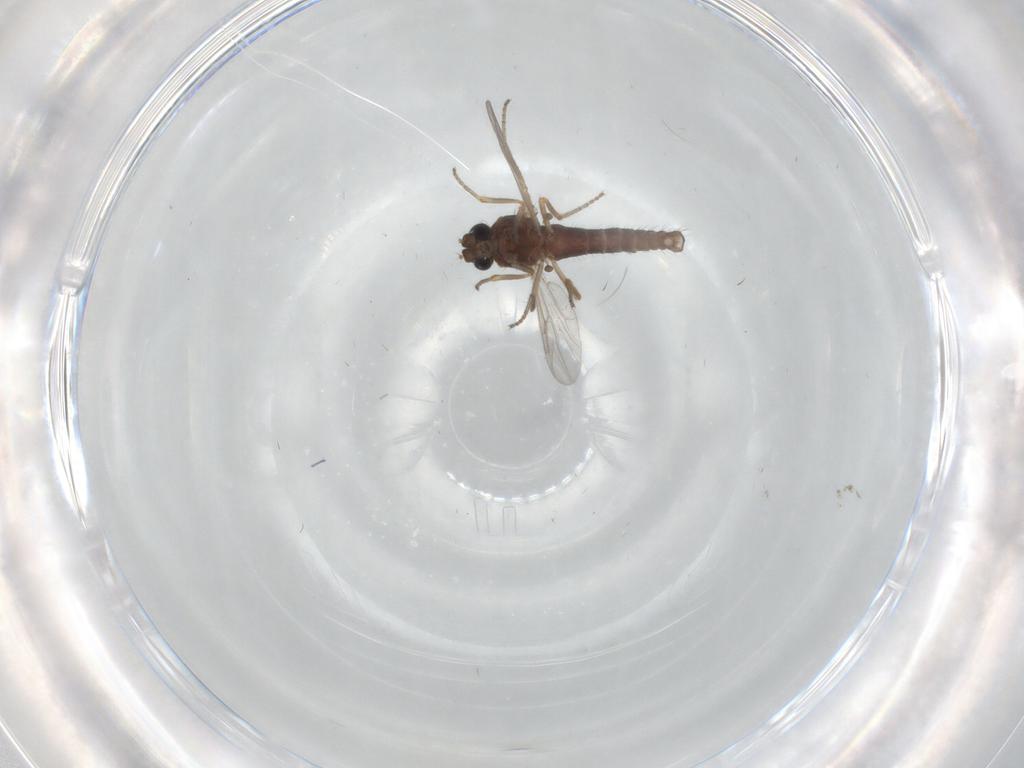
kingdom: Animalia
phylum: Arthropoda
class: Insecta
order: Diptera
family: Ceratopogonidae
